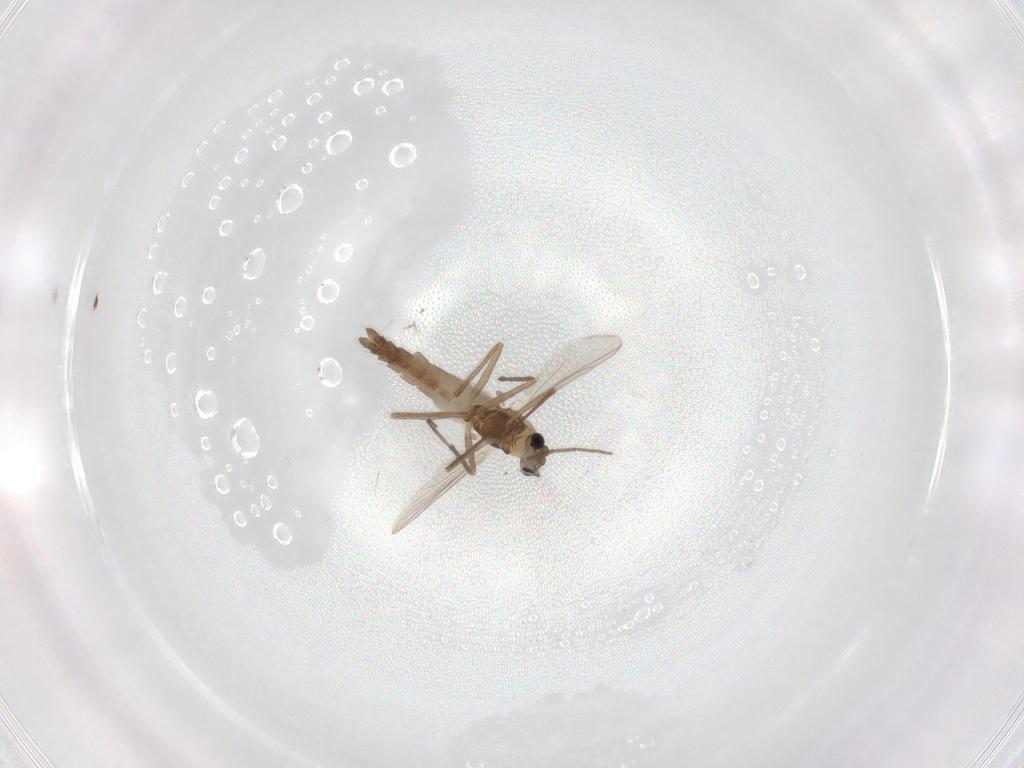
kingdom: Animalia
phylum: Arthropoda
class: Insecta
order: Diptera
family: Chironomidae
